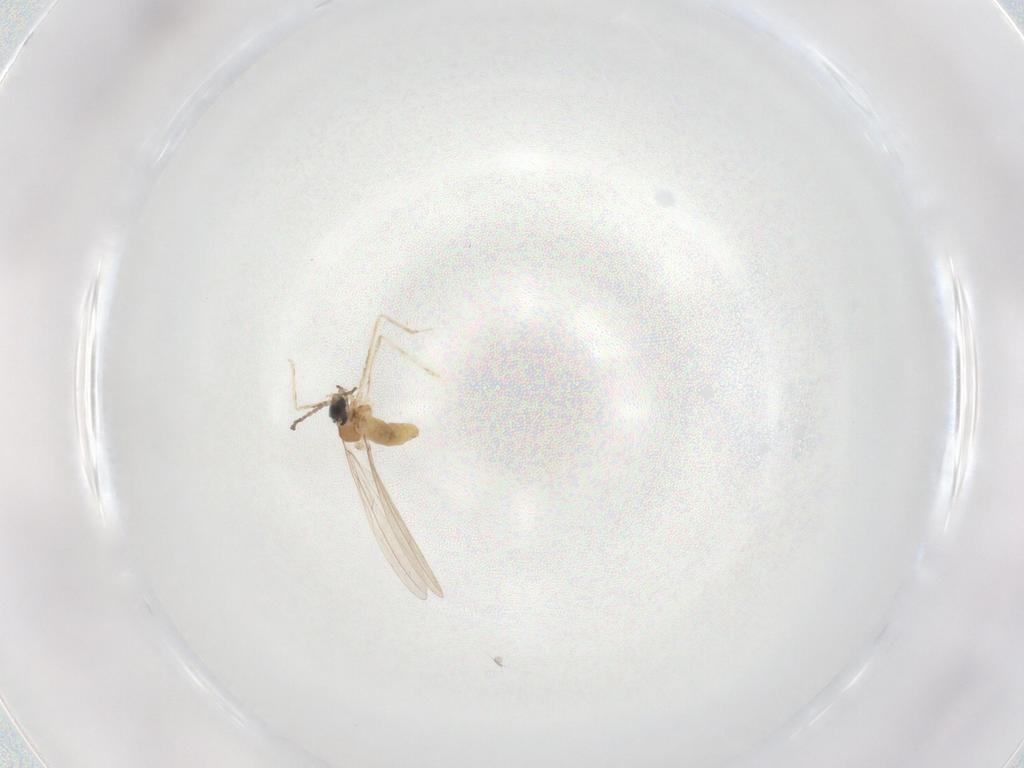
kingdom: Animalia
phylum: Arthropoda
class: Insecta
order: Diptera
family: Cecidomyiidae
